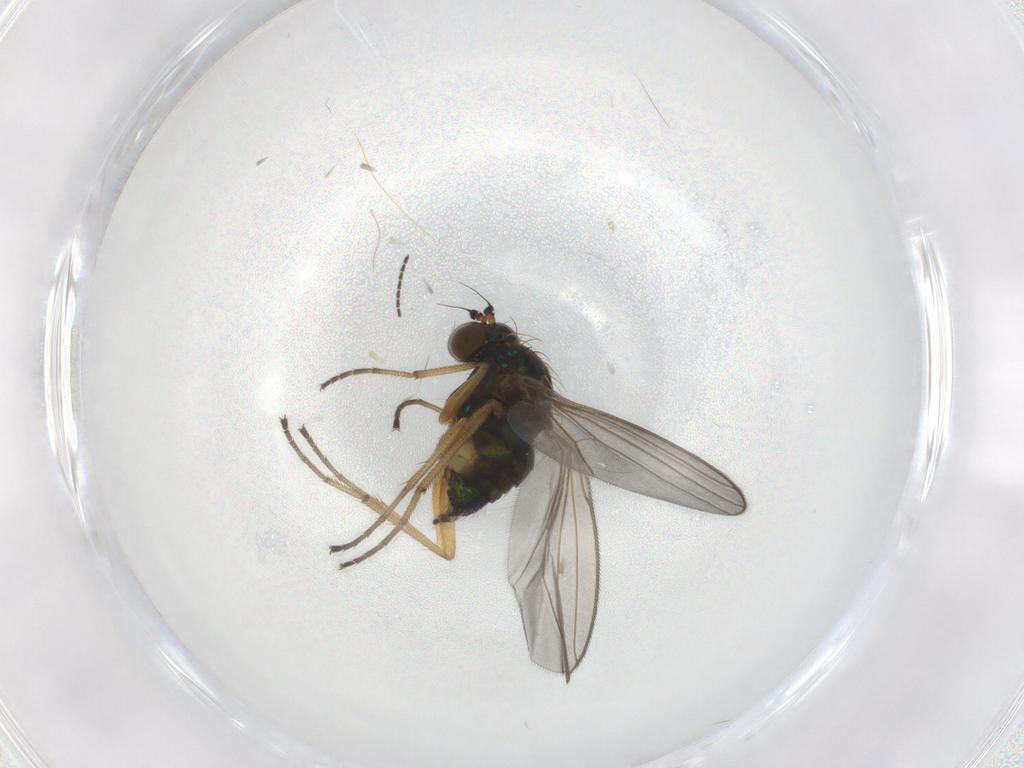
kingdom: Animalia
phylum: Arthropoda
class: Insecta
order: Diptera
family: Dolichopodidae
